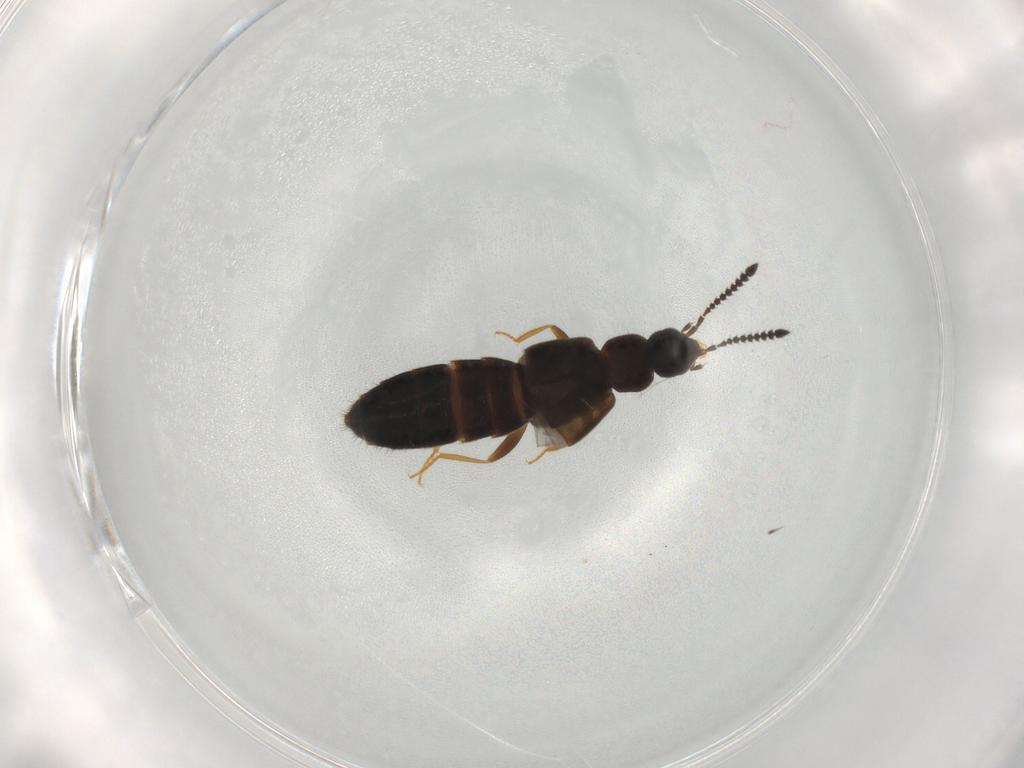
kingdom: Animalia
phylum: Arthropoda
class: Insecta
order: Coleoptera
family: Staphylinidae
